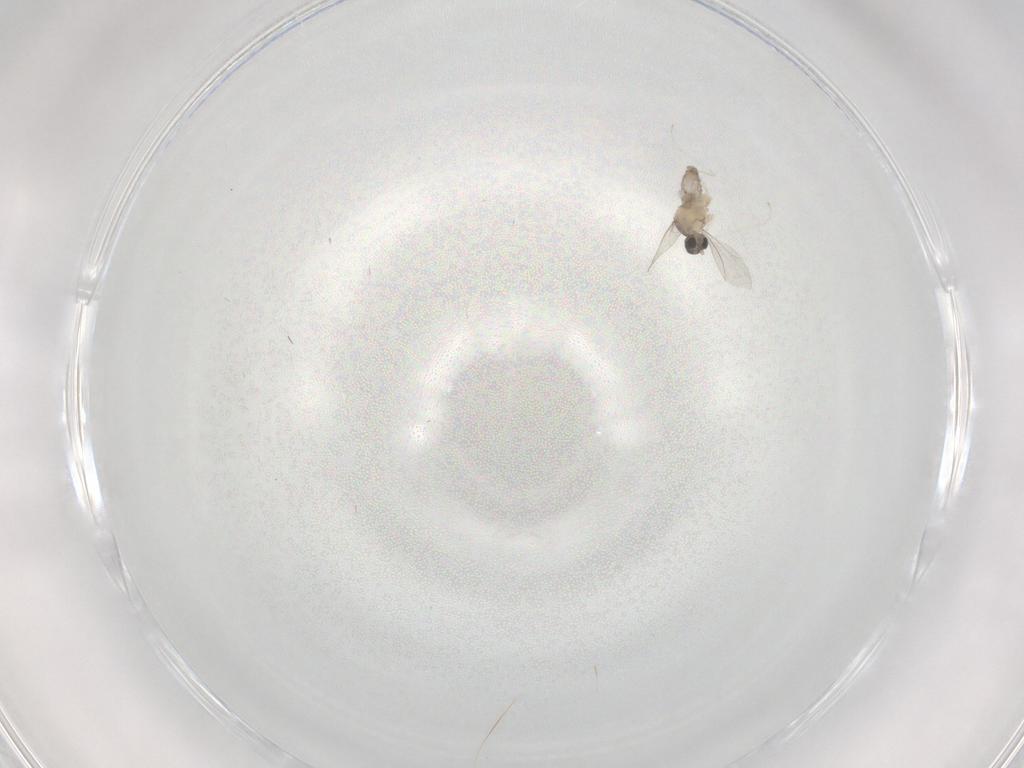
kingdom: Animalia
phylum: Arthropoda
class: Insecta
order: Diptera
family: Cecidomyiidae
